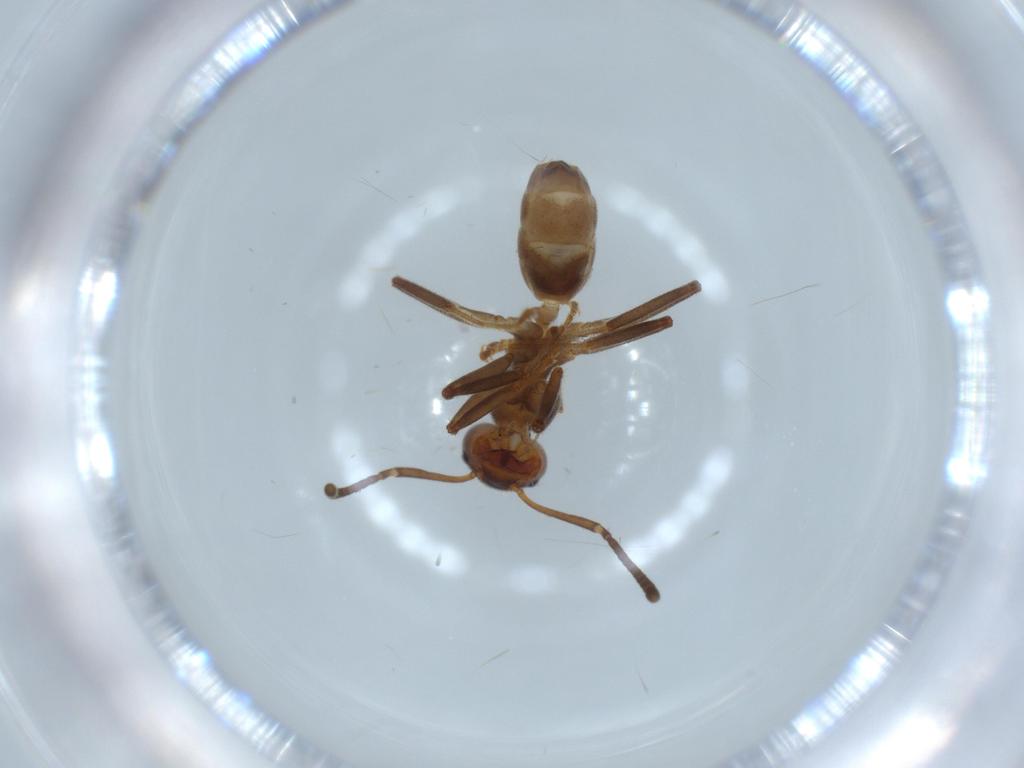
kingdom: Animalia
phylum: Arthropoda
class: Insecta
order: Hymenoptera
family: Formicidae
